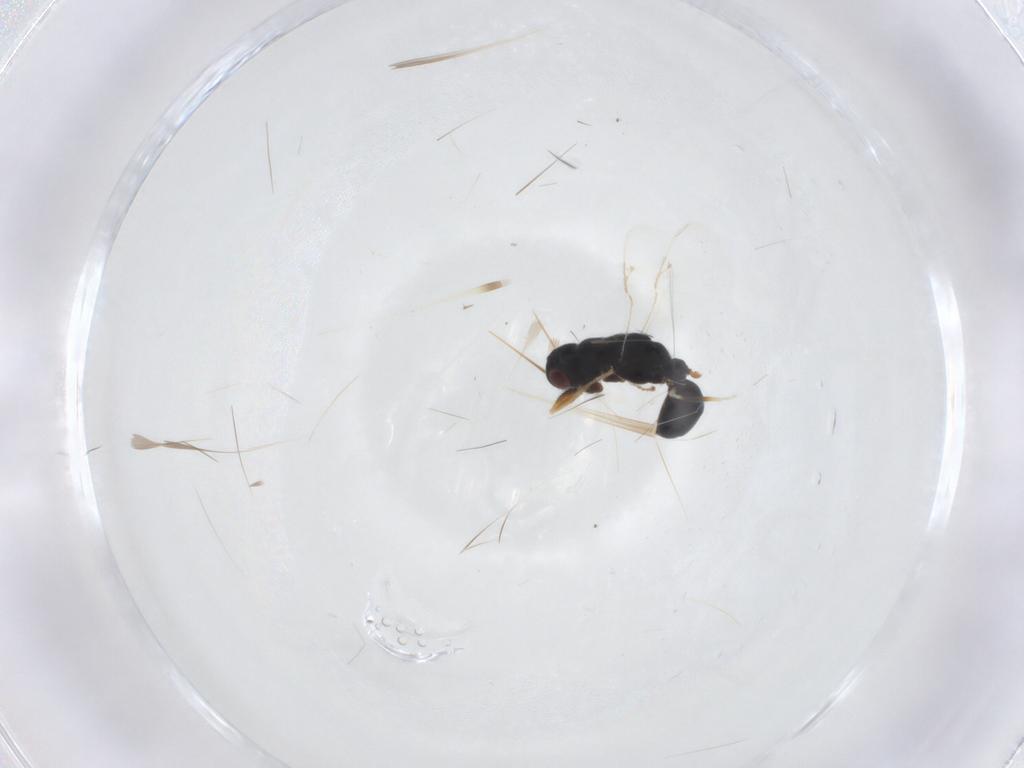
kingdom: Animalia
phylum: Arthropoda
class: Insecta
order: Hymenoptera
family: Eurytomidae
